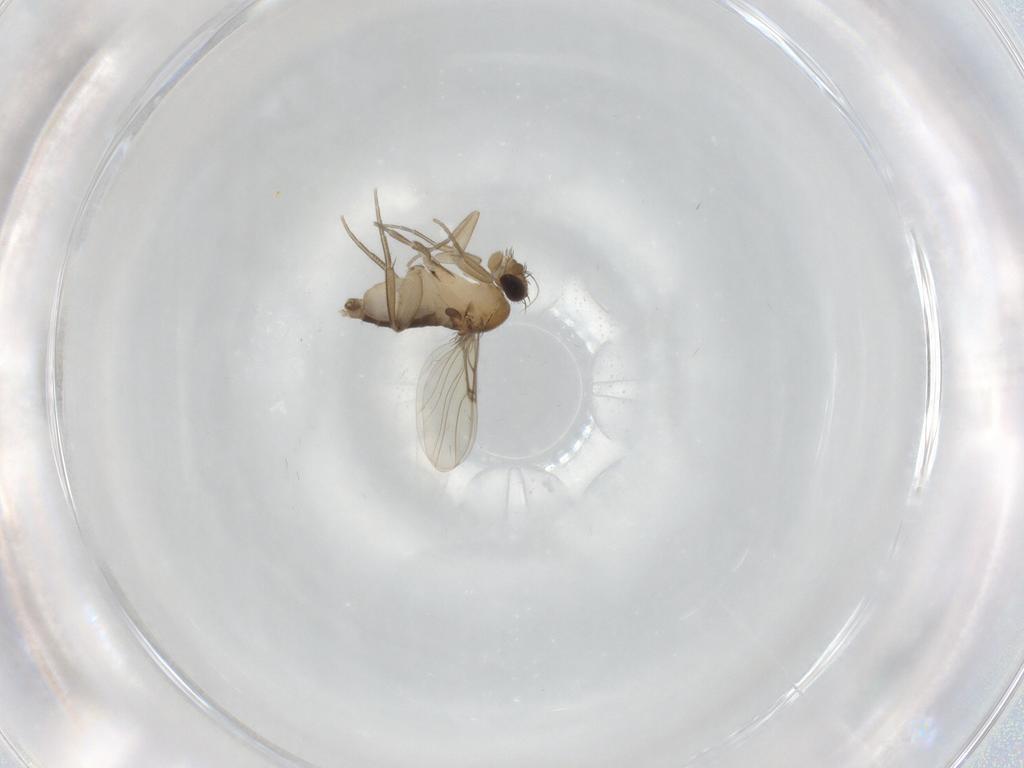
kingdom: Animalia
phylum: Arthropoda
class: Insecta
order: Diptera
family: Phoridae
